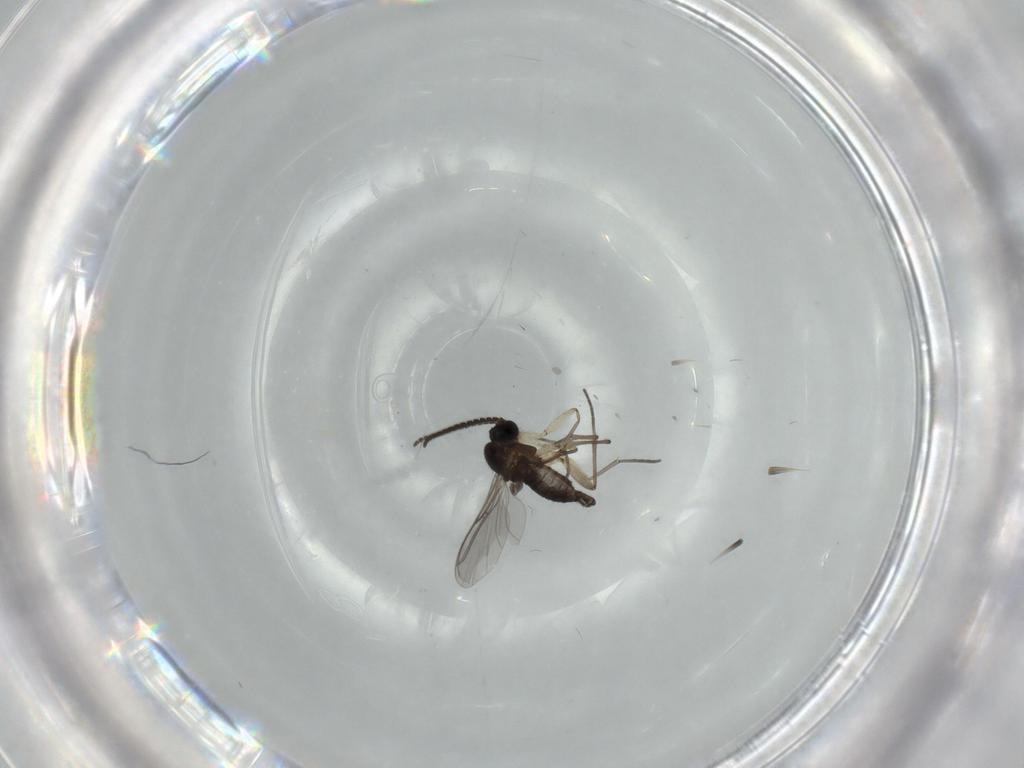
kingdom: Animalia
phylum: Arthropoda
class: Insecta
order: Diptera
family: Sciaridae
